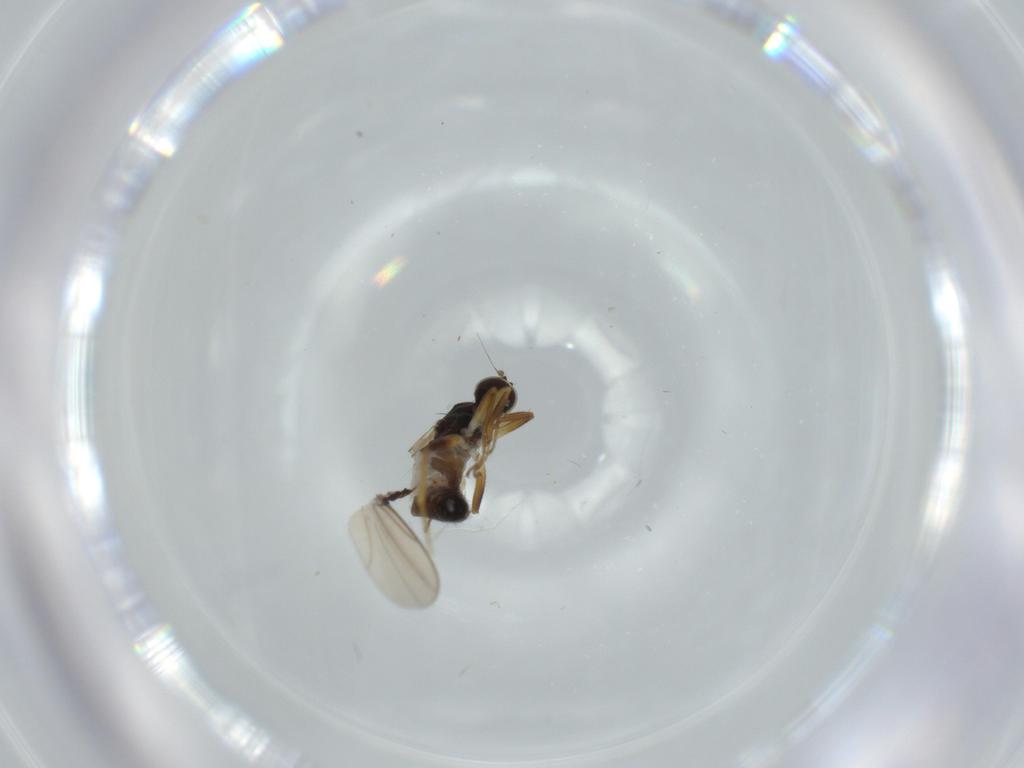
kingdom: Animalia
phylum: Arthropoda
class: Insecta
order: Diptera
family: Hybotidae
